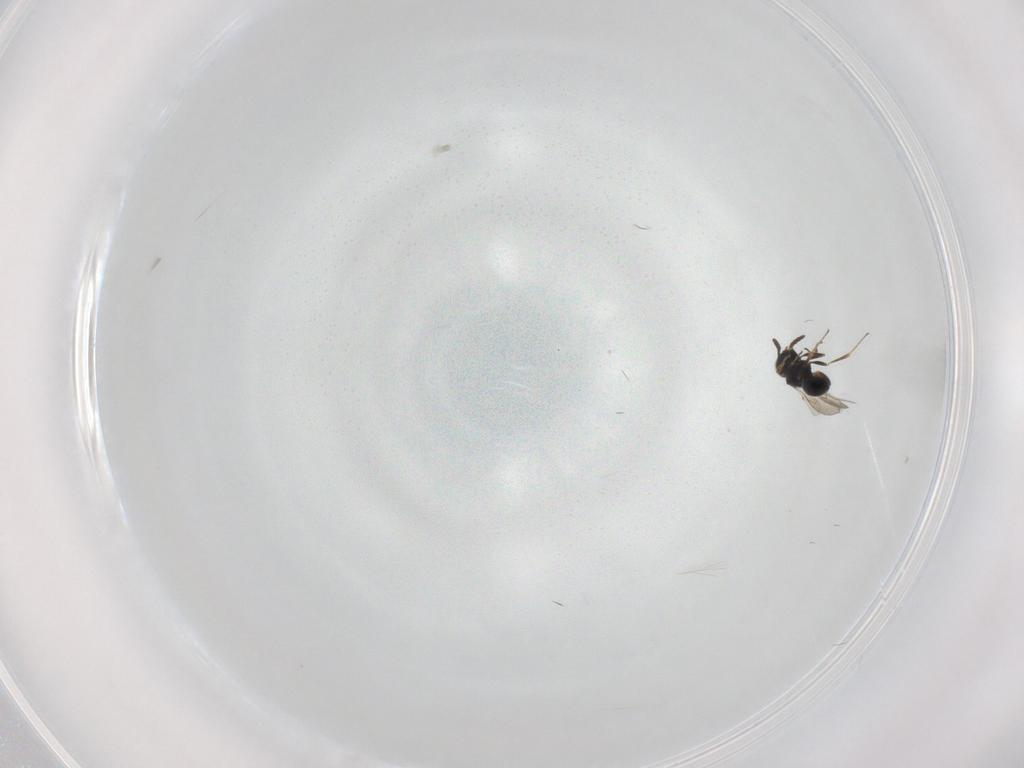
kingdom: Animalia
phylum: Arthropoda
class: Insecta
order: Hymenoptera
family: Scelionidae
